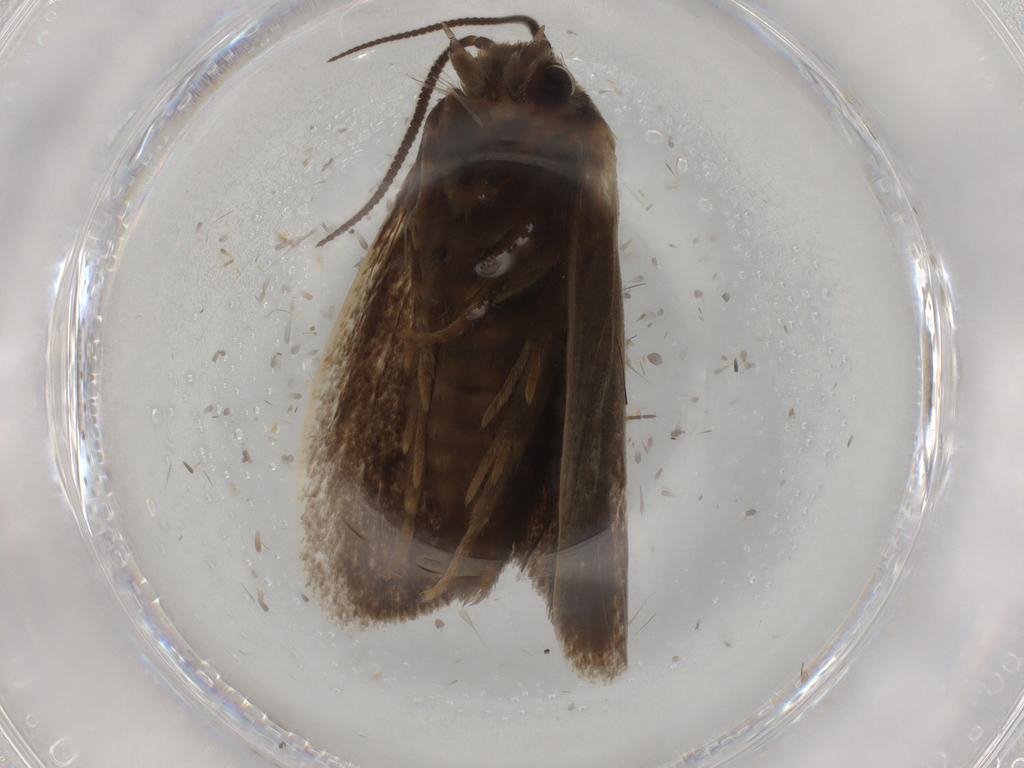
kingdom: Animalia
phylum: Arthropoda
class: Insecta
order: Lepidoptera
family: Tineidae
